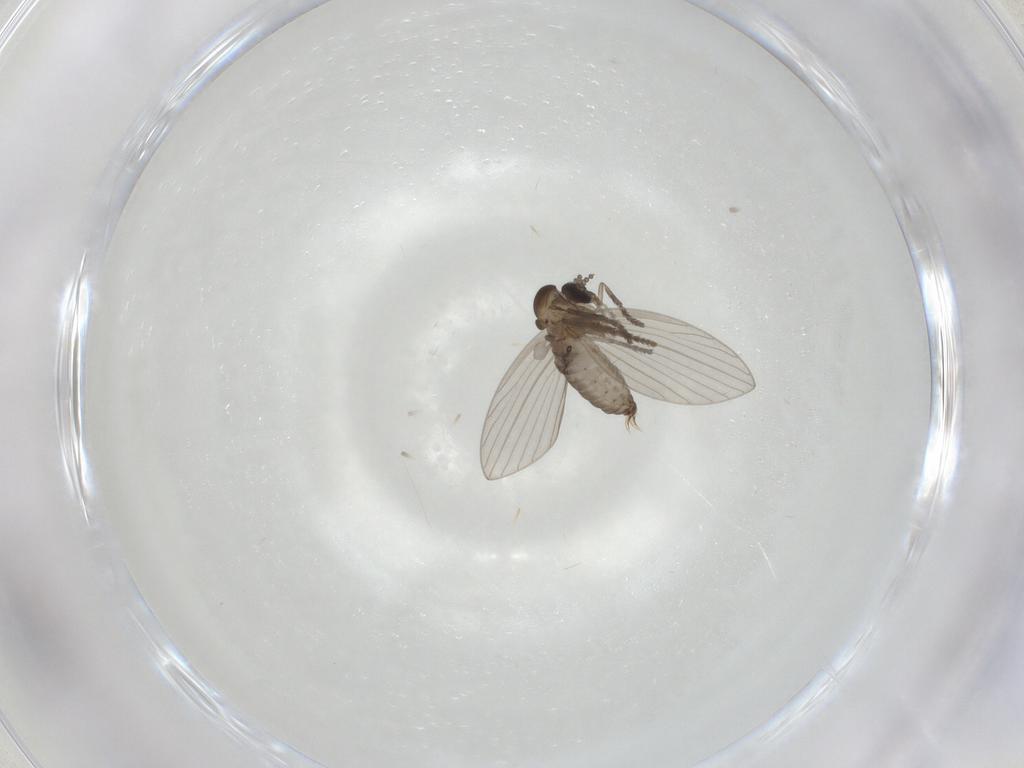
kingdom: Animalia
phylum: Arthropoda
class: Insecta
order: Diptera
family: Psychodidae
